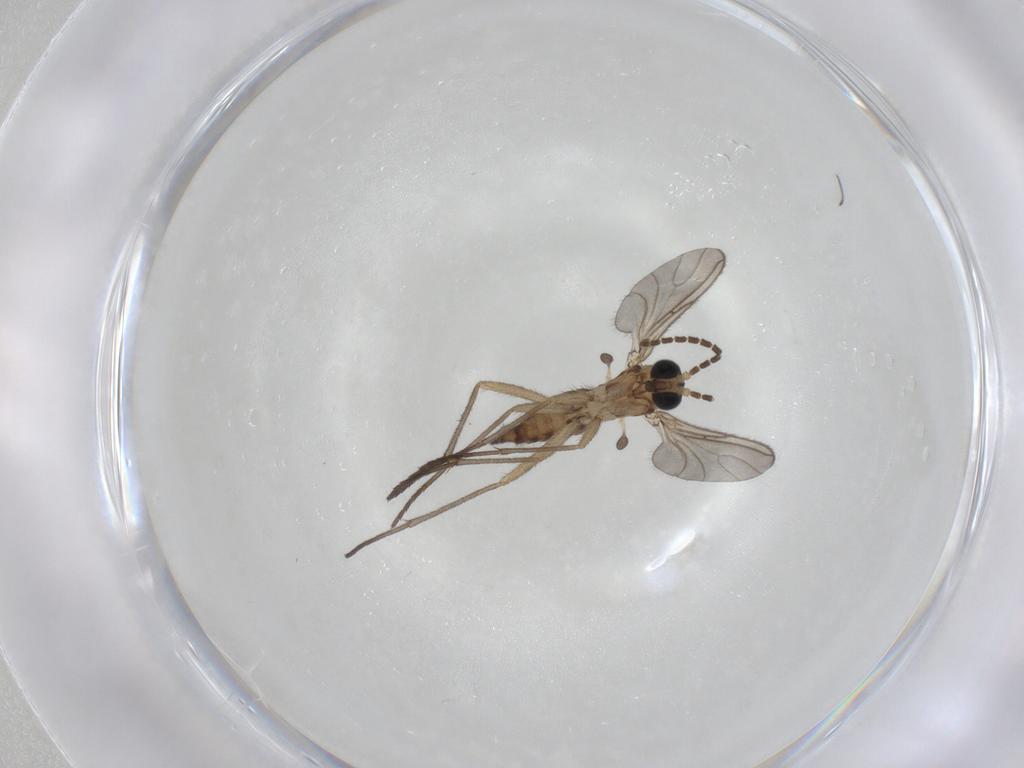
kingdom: Animalia
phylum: Arthropoda
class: Insecta
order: Diptera
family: Sciaridae
